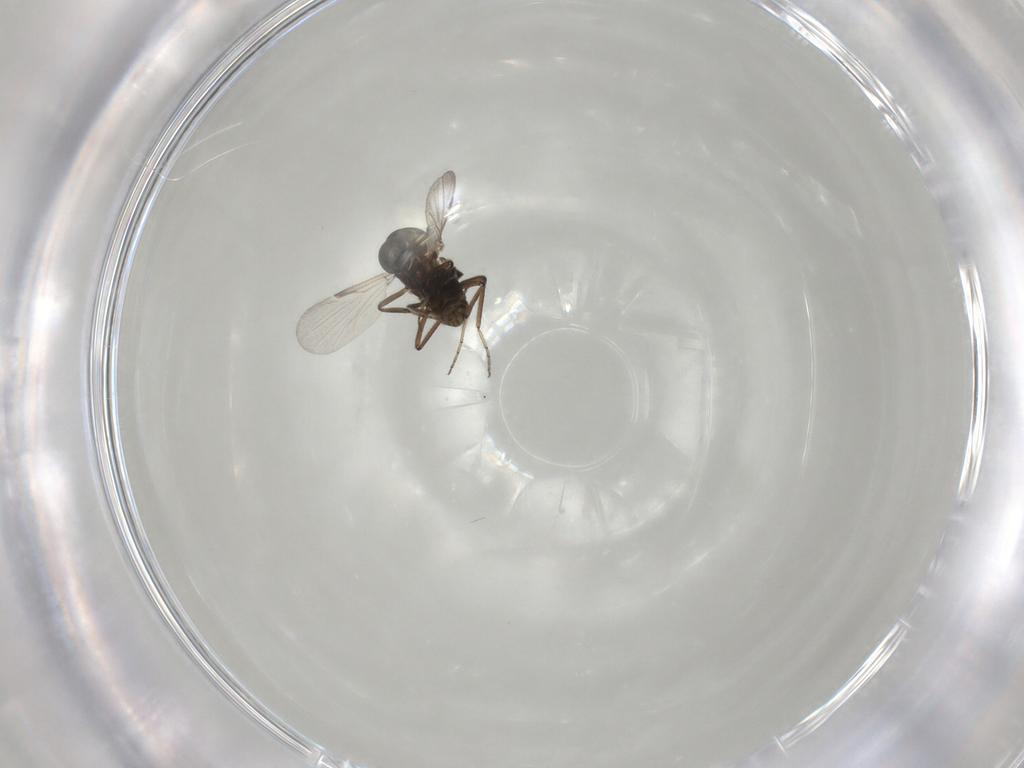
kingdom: Animalia
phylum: Arthropoda
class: Insecta
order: Diptera
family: Ceratopogonidae
